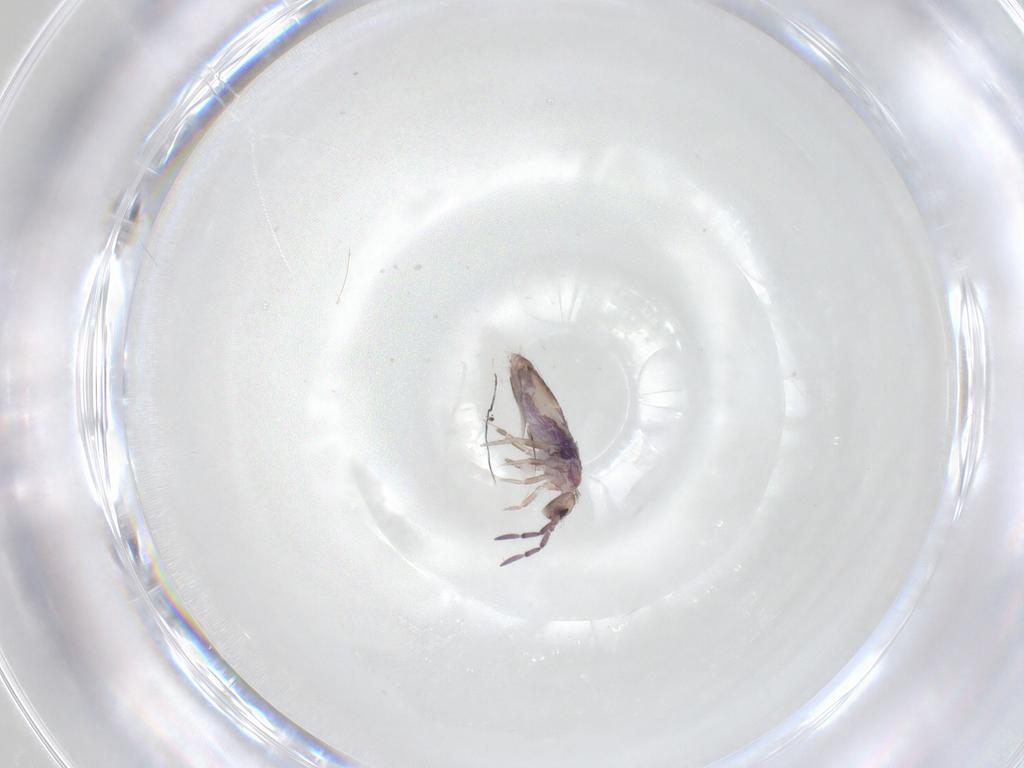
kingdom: Animalia
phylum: Arthropoda
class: Collembola
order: Entomobryomorpha
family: Entomobryidae
